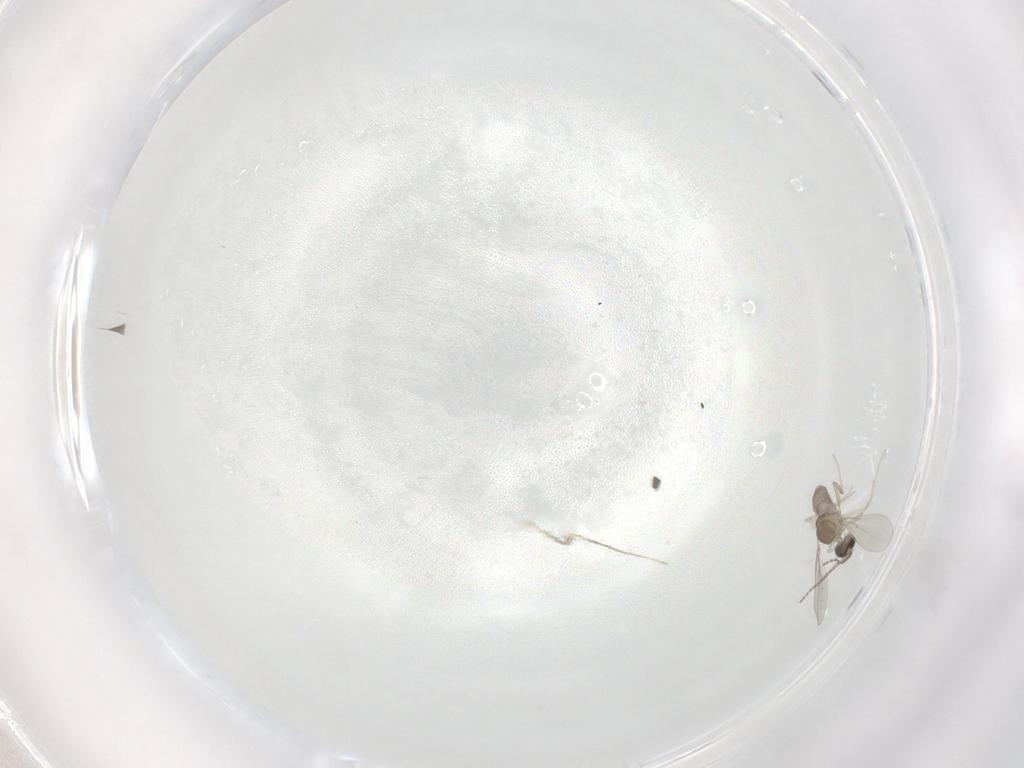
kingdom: Animalia
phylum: Arthropoda
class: Insecta
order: Diptera
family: Cecidomyiidae
